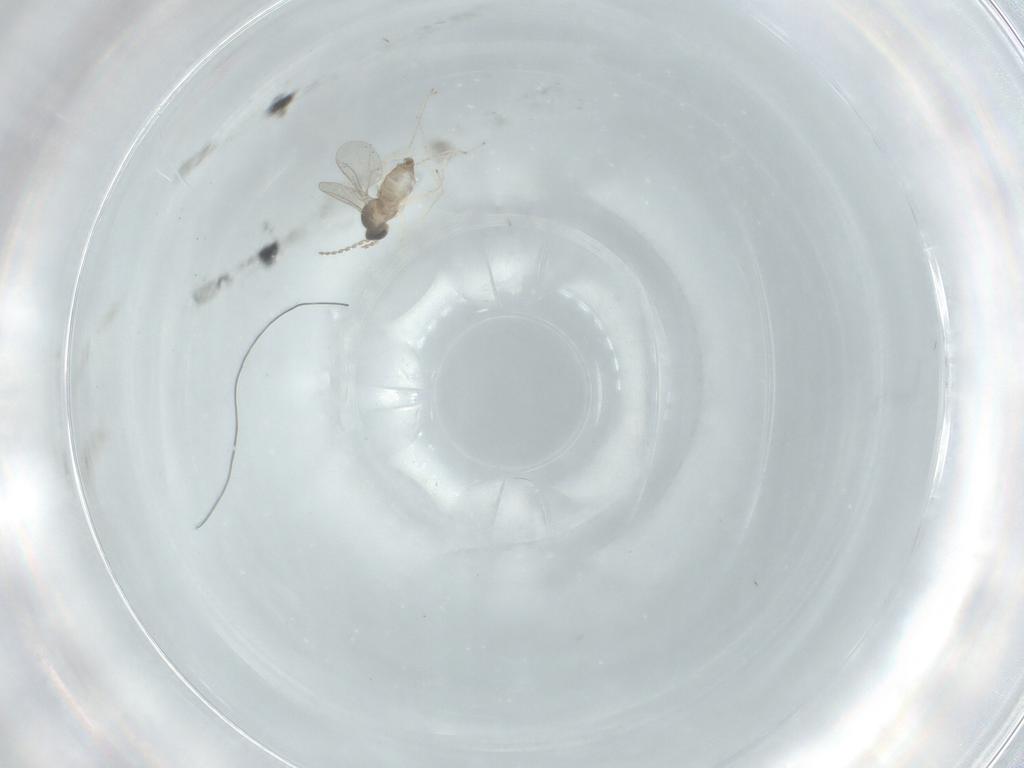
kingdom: Animalia
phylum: Arthropoda
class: Insecta
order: Diptera
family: Cecidomyiidae
